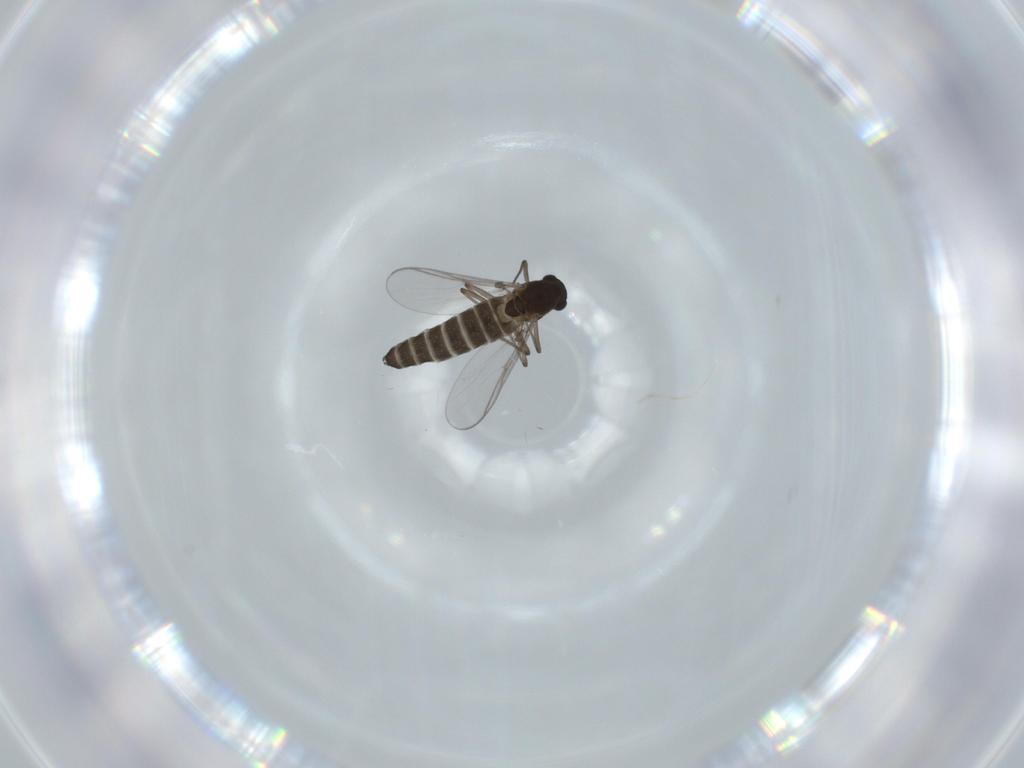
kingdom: Animalia
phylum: Arthropoda
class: Insecta
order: Diptera
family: Chironomidae
